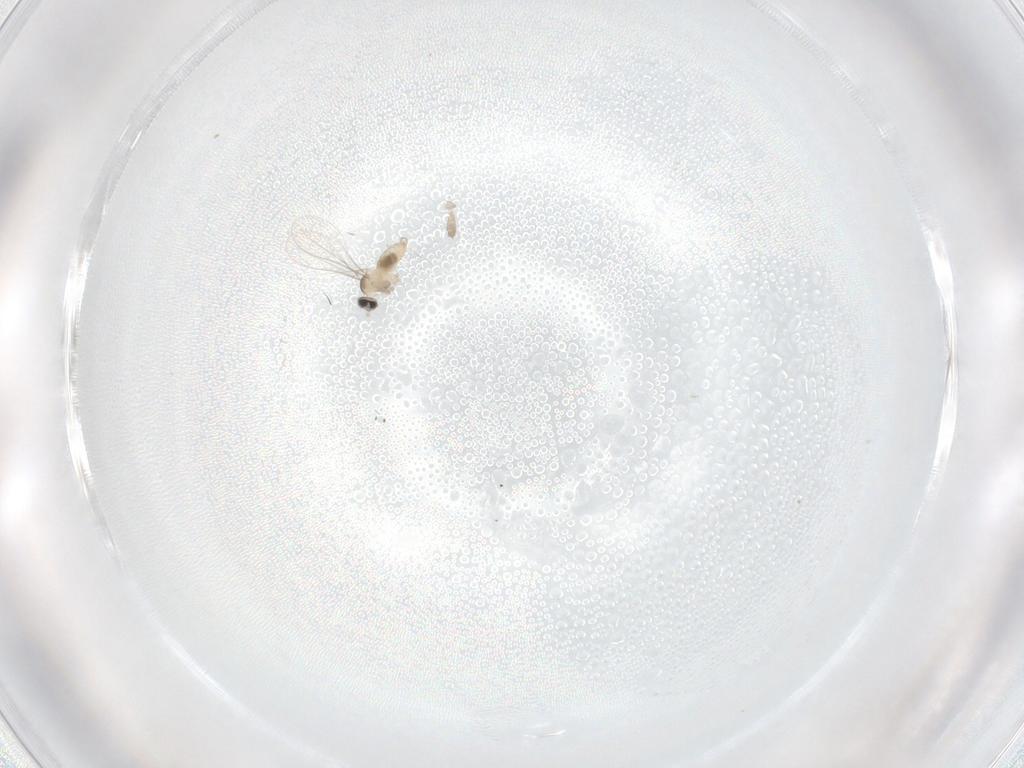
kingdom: Animalia
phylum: Arthropoda
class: Insecta
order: Diptera
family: Cecidomyiidae
